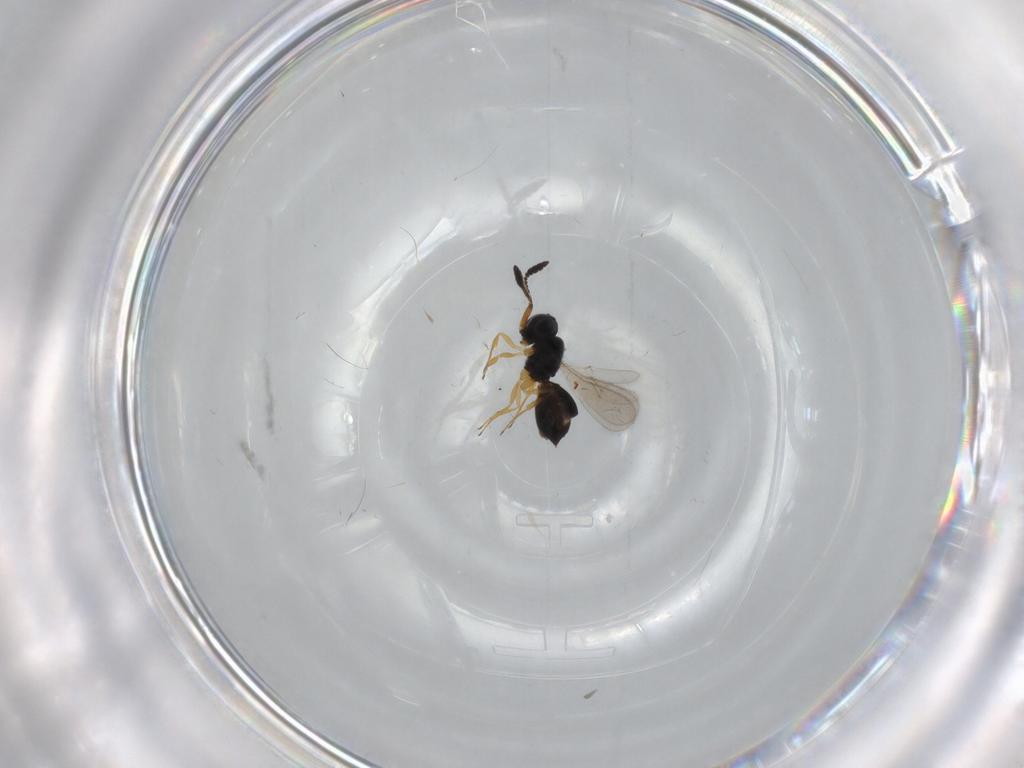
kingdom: Animalia
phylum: Arthropoda
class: Insecta
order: Hymenoptera
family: Scelionidae
